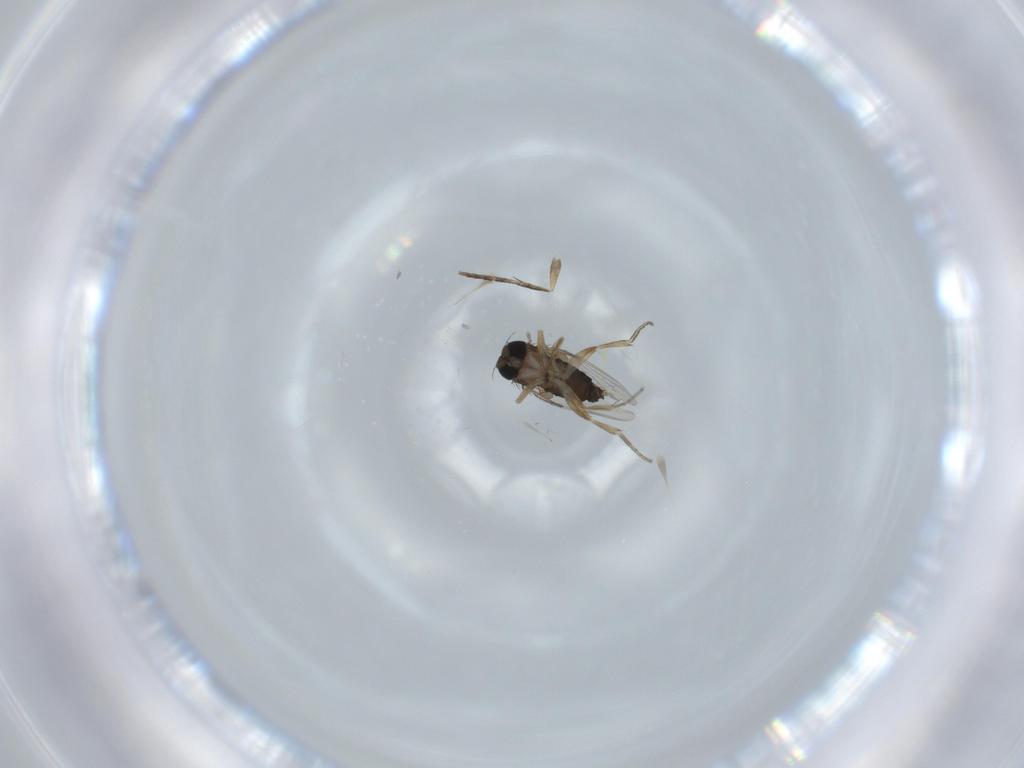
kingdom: Animalia
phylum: Arthropoda
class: Insecta
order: Diptera
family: Phoridae
